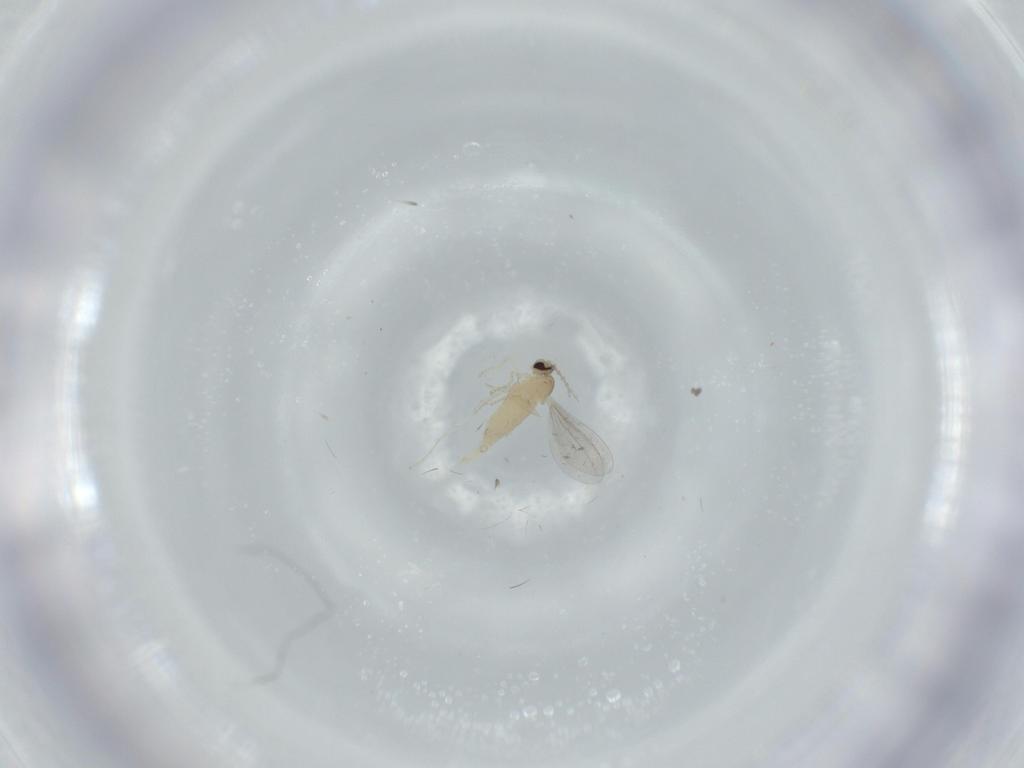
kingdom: Animalia
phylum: Arthropoda
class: Insecta
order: Diptera
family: Cecidomyiidae
